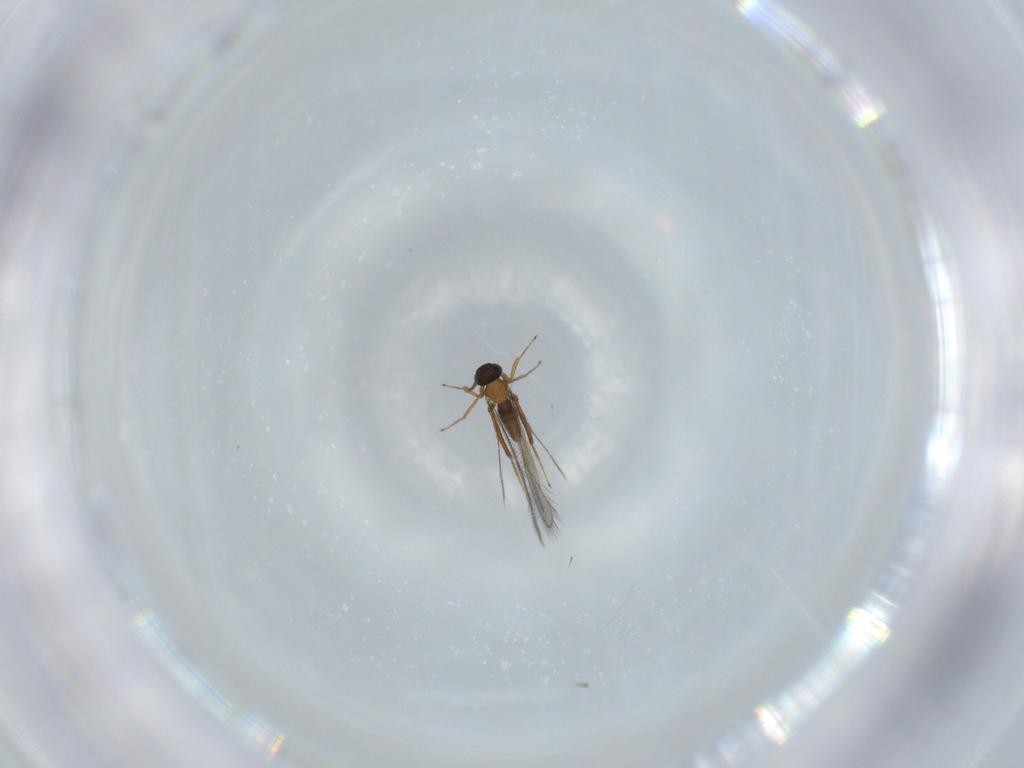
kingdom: Animalia
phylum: Arthropoda
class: Insecta
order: Hymenoptera
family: Mymaridae
